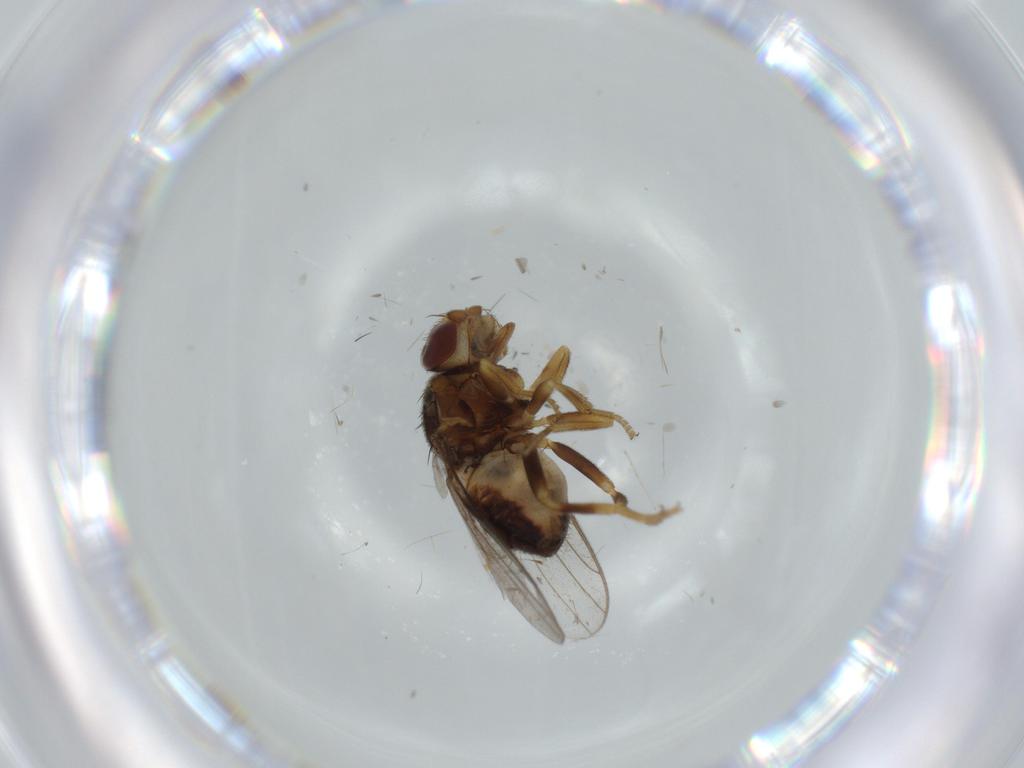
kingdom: Animalia
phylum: Arthropoda
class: Insecta
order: Diptera
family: Chloropidae
